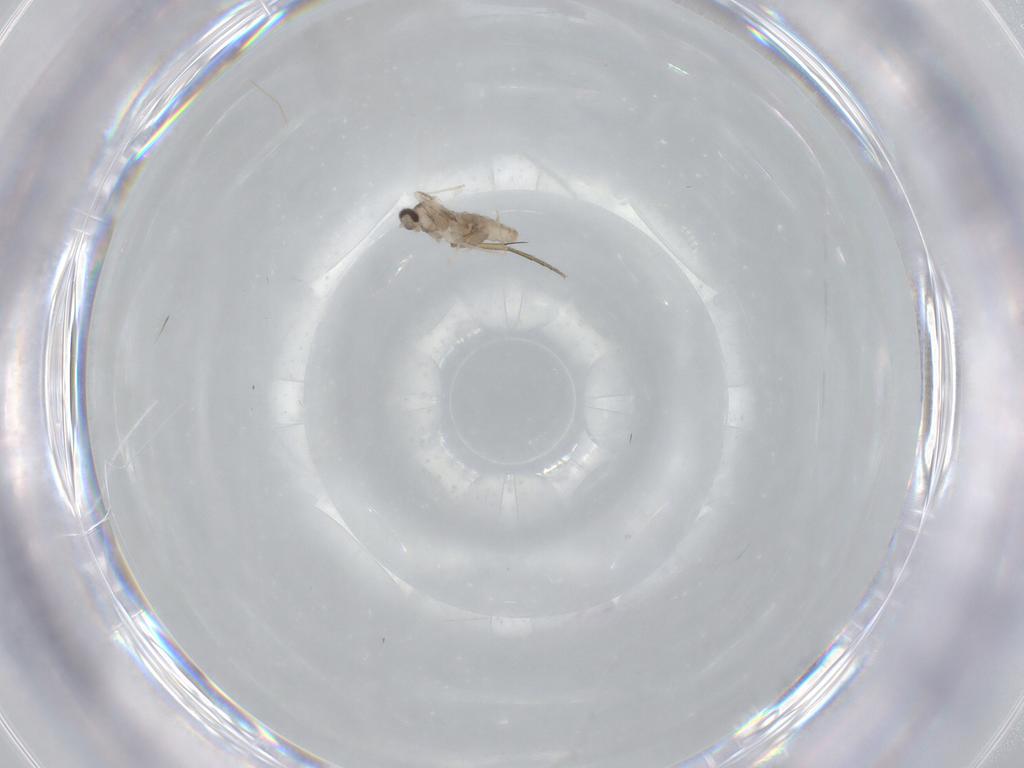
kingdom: Animalia
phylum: Arthropoda
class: Insecta
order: Diptera
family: Phoridae
